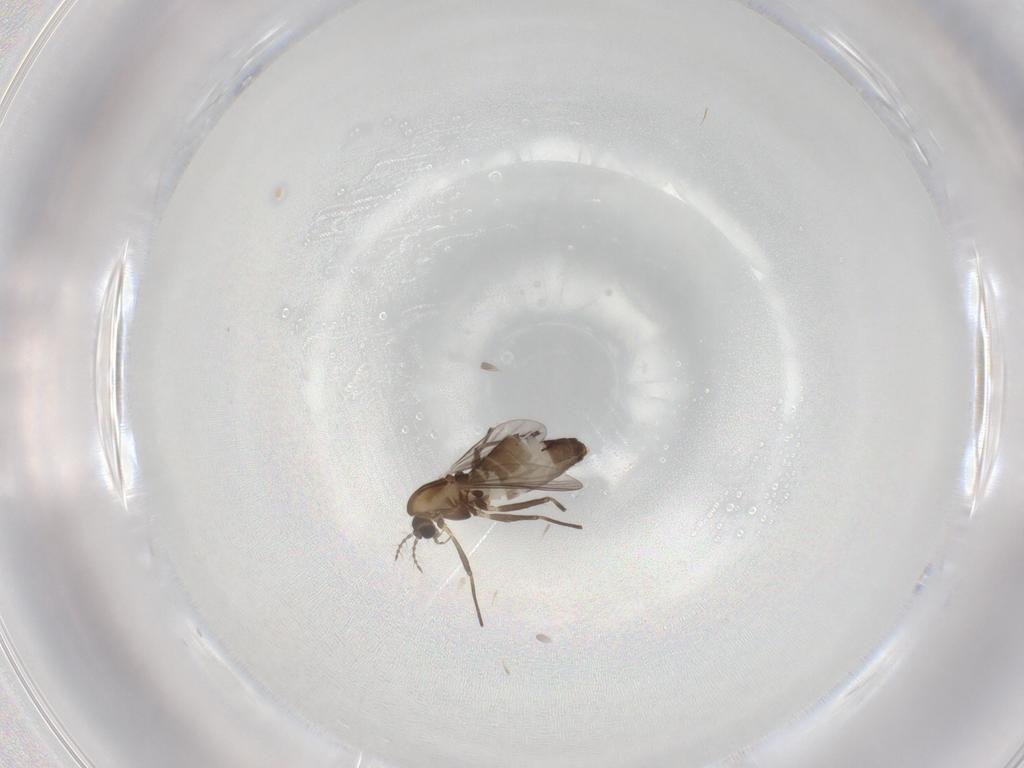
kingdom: Animalia
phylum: Arthropoda
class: Insecta
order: Diptera
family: Chironomidae
